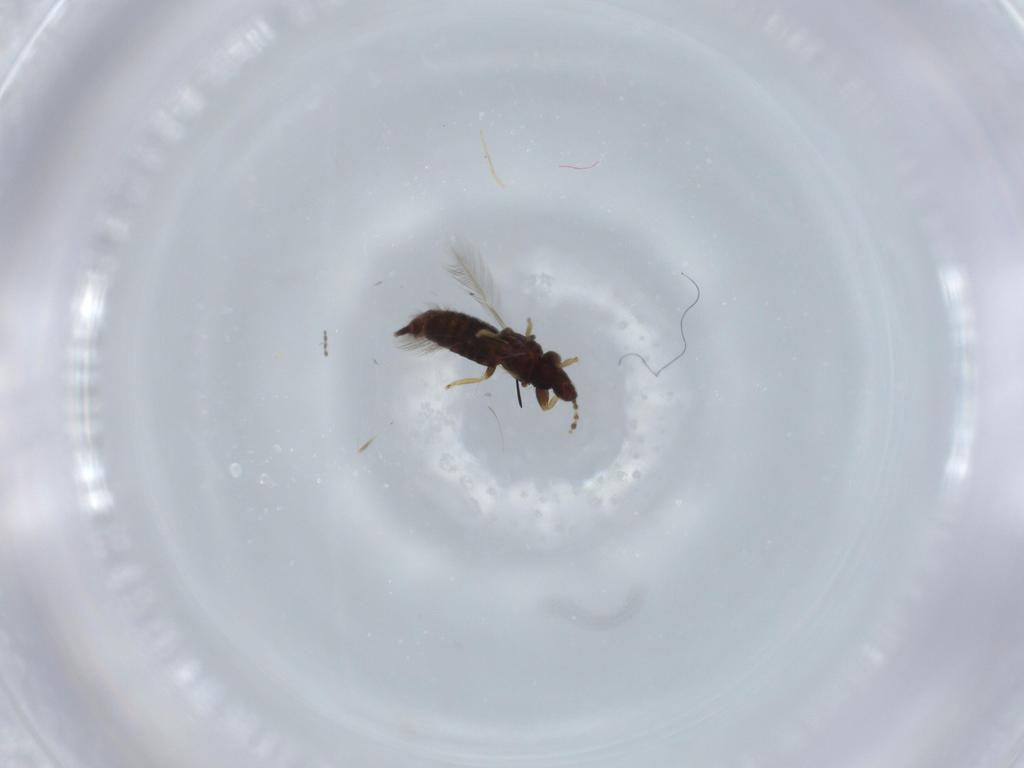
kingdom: Animalia
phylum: Arthropoda
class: Insecta
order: Thysanoptera
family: Phlaeothripidae
